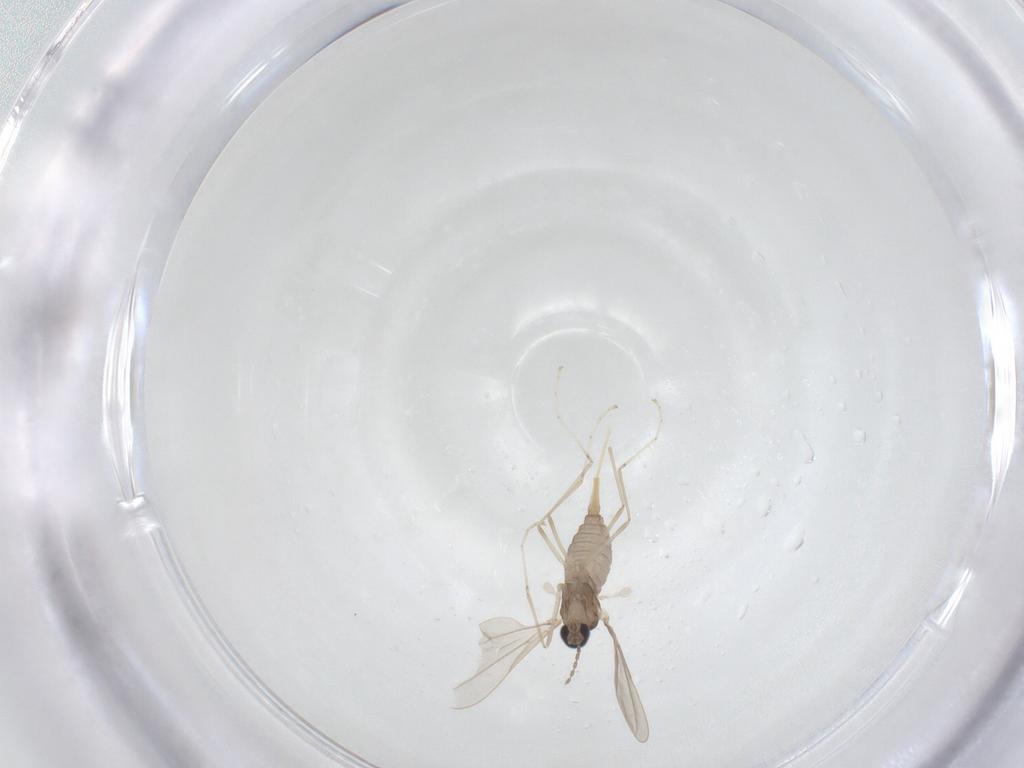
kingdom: Animalia
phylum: Arthropoda
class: Insecta
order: Diptera
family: Cecidomyiidae
